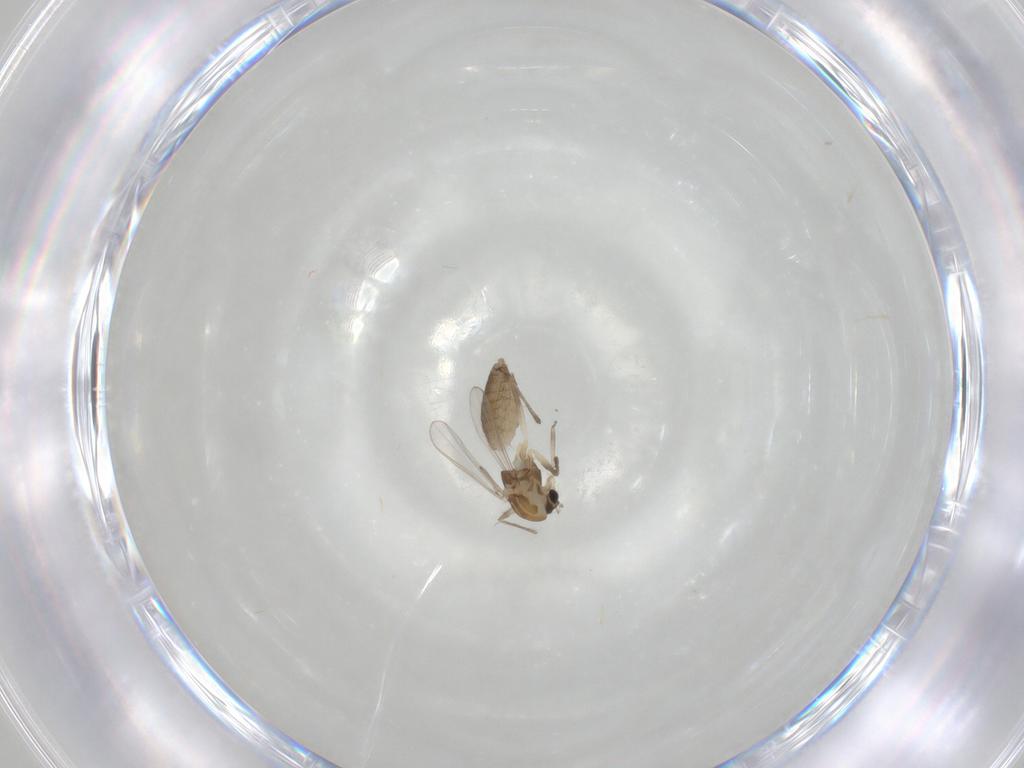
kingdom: Animalia
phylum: Arthropoda
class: Insecta
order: Diptera
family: Chironomidae
